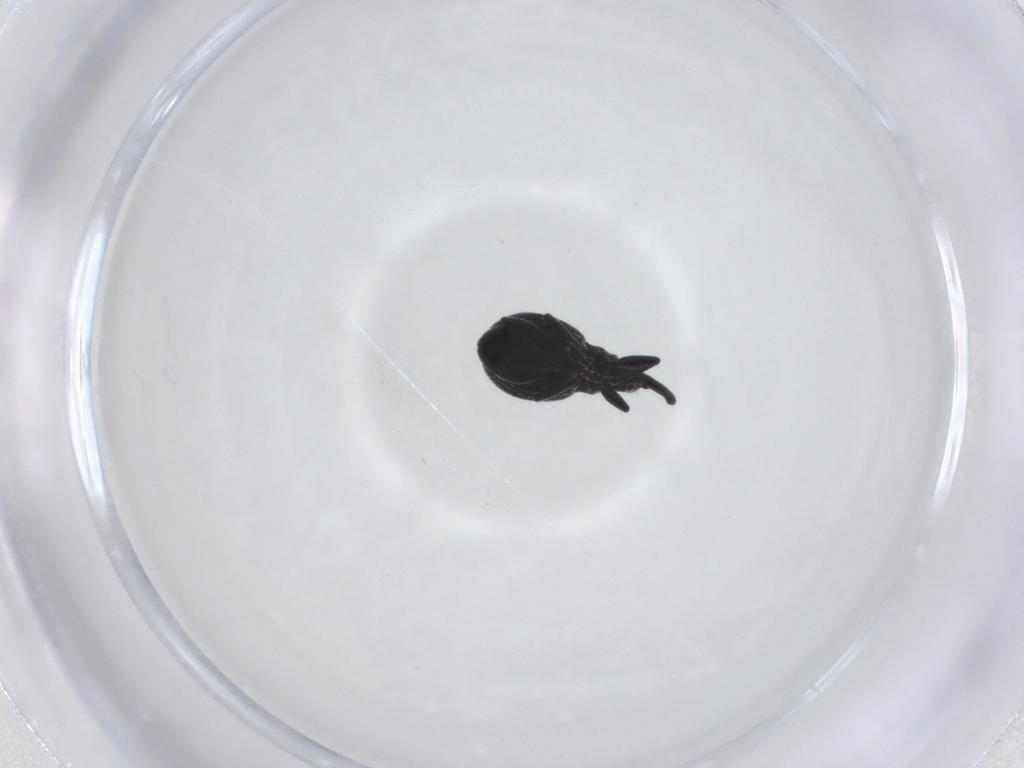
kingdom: Animalia
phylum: Arthropoda
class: Insecta
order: Coleoptera
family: Brentidae
